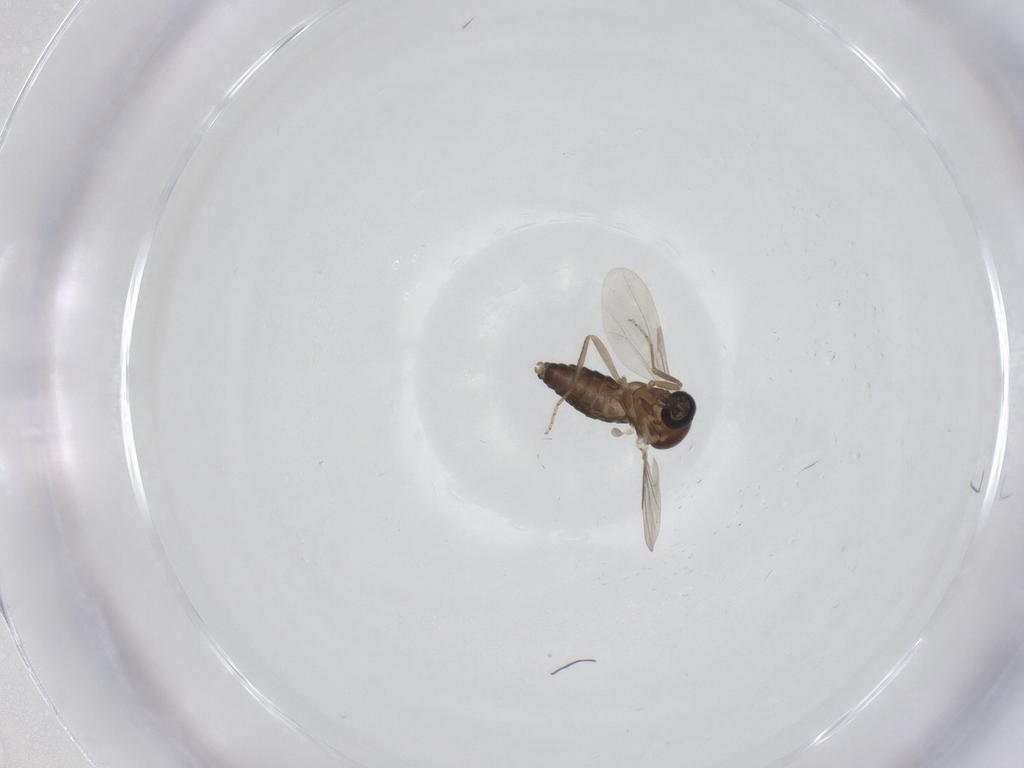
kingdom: Animalia
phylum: Arthropoda
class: Insecta
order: Diptera
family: Ceratopogonidae
